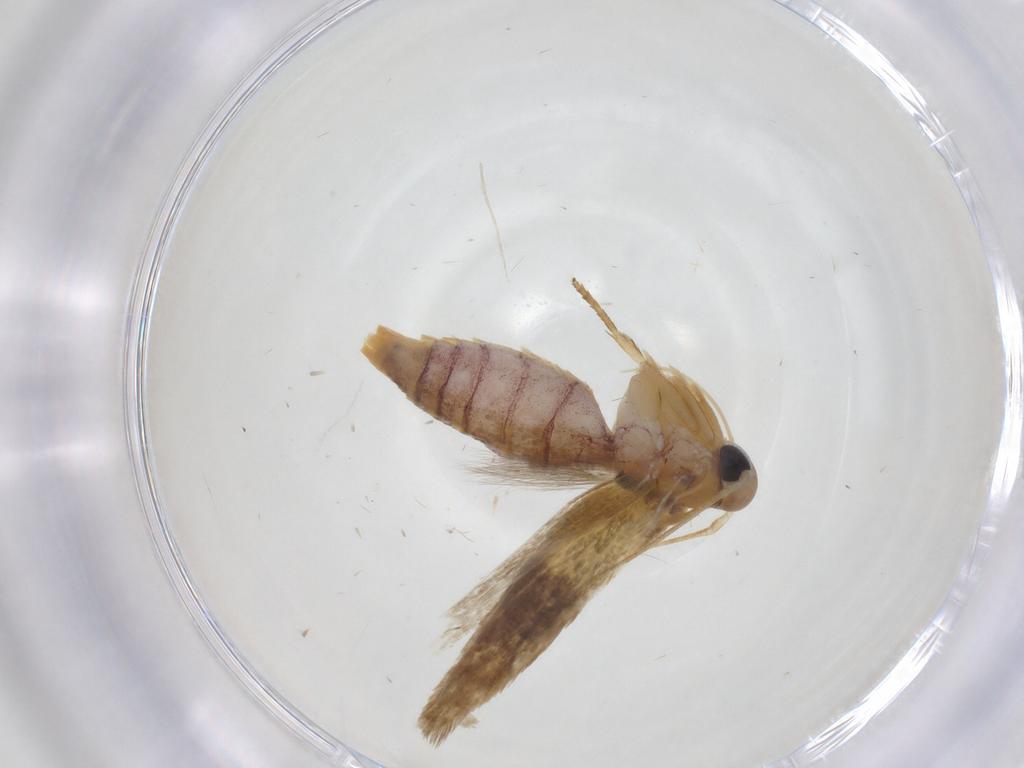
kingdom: Animalia
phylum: Arthropoda
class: Insecta
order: Lepidoptera
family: Stathmopodidae
